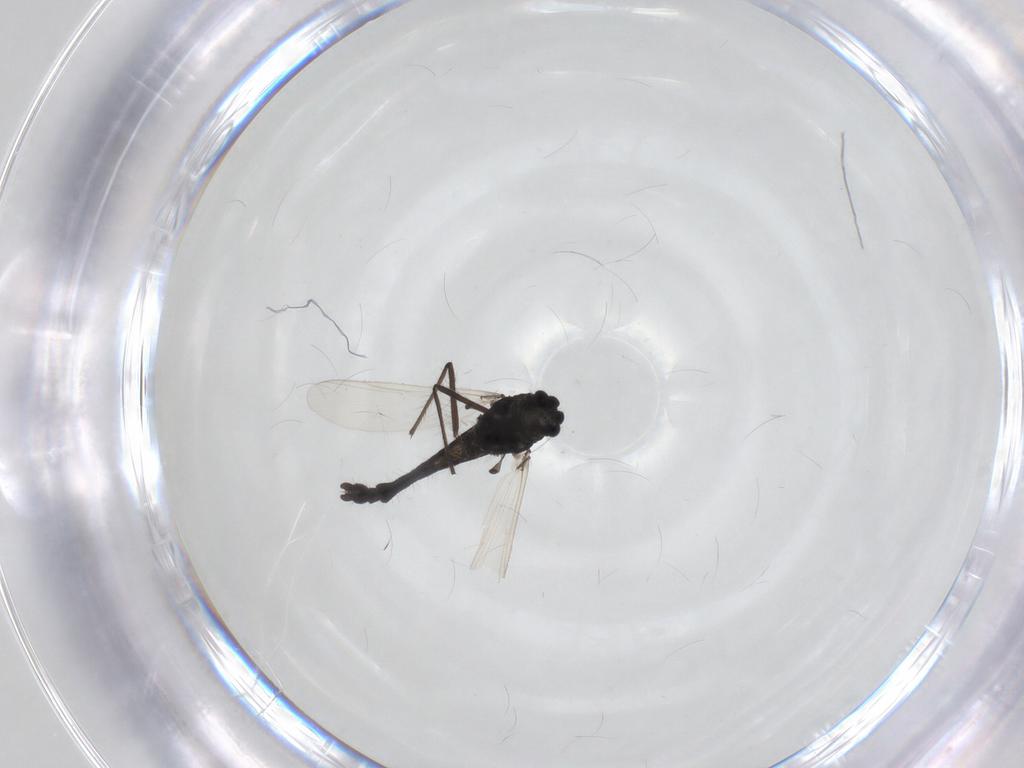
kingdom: Animalia
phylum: Arthropoda
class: Insecta
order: Diptera
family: Chironomidae
